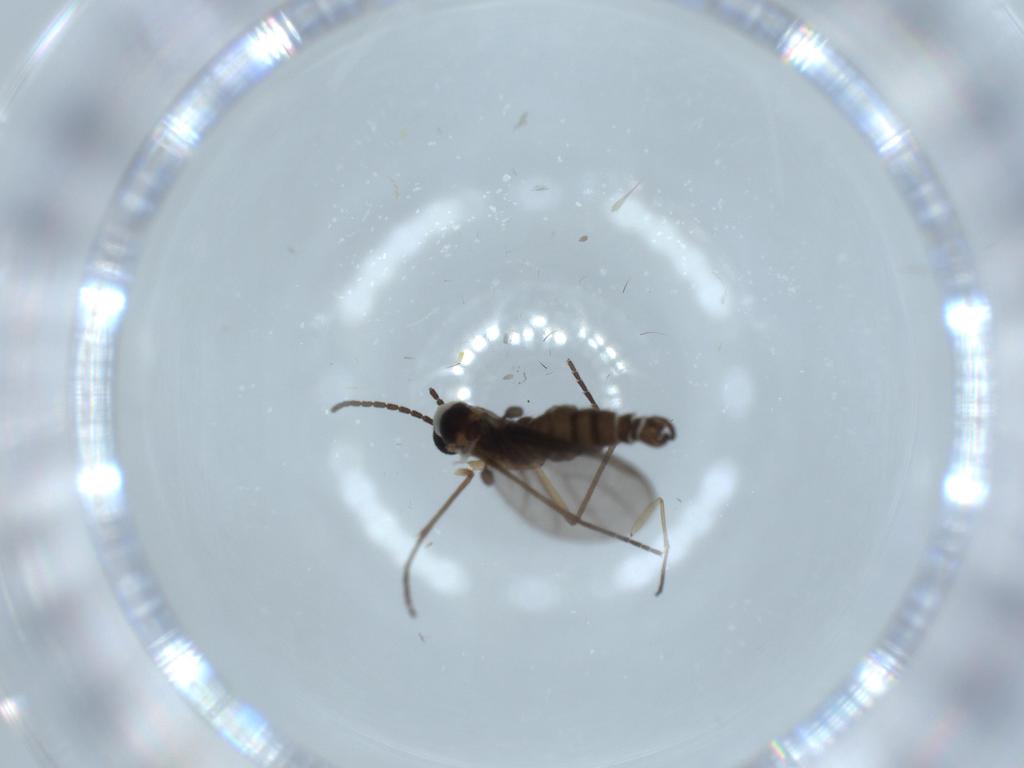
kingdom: Animalia
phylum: Arthropoda
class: Insecta
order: Diptera
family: Sciaridae
